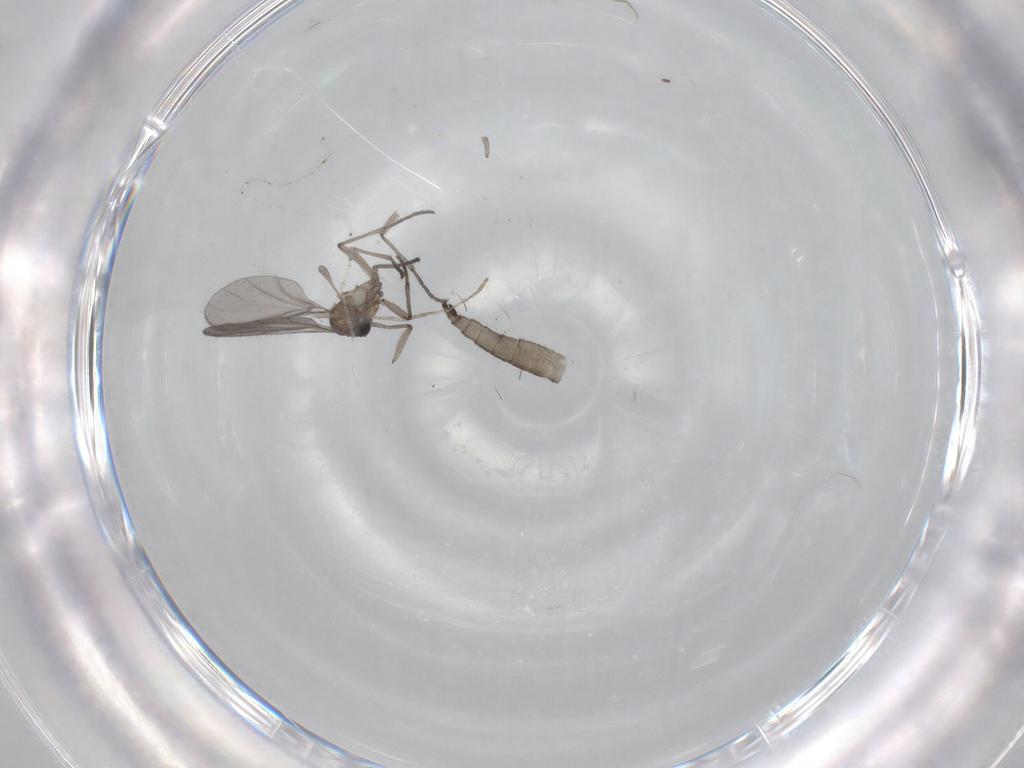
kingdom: Animalia
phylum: Arthropoda
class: Insecta
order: Diptera
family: Sciaridae
